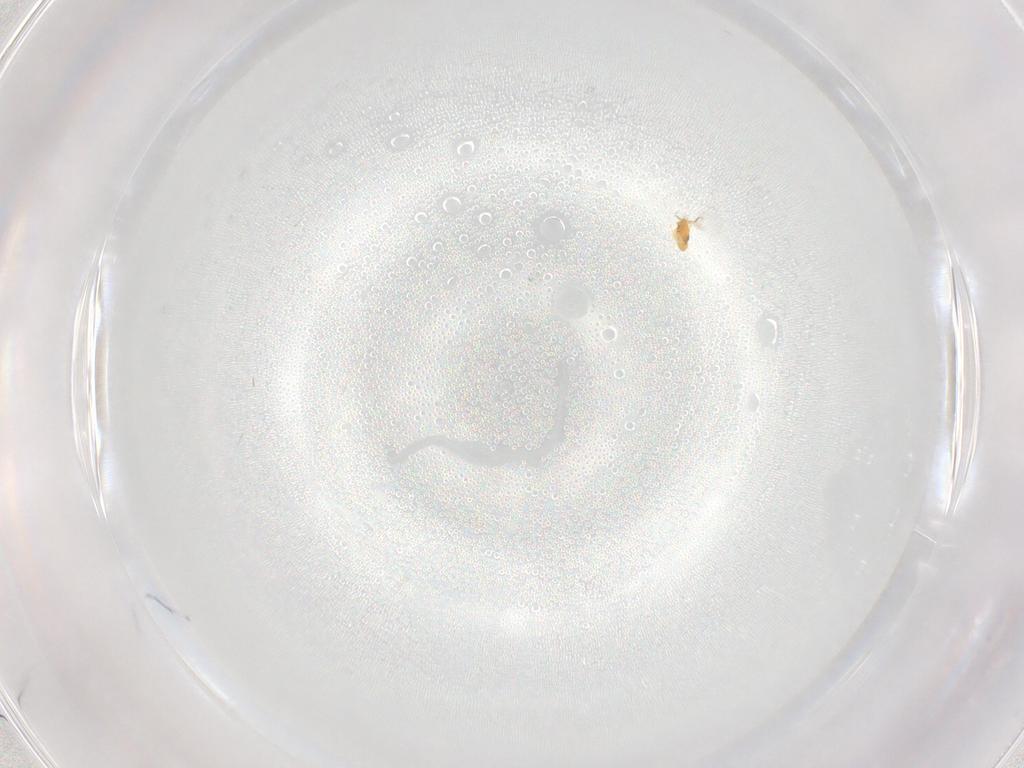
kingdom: Animalia
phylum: Arthropoda
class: Insecta
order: Hymenoptera
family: Trichogrammatidae
